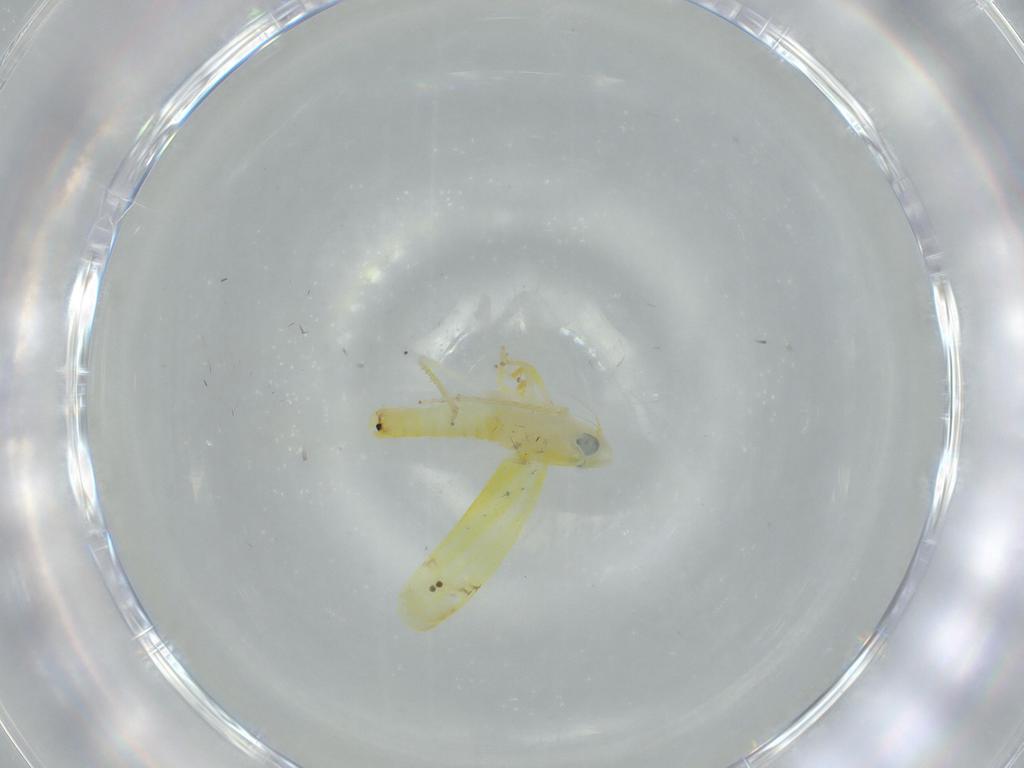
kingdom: Animalia
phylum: Arthropoda
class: Insecta
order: Hemiptera
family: Cicadellidae
